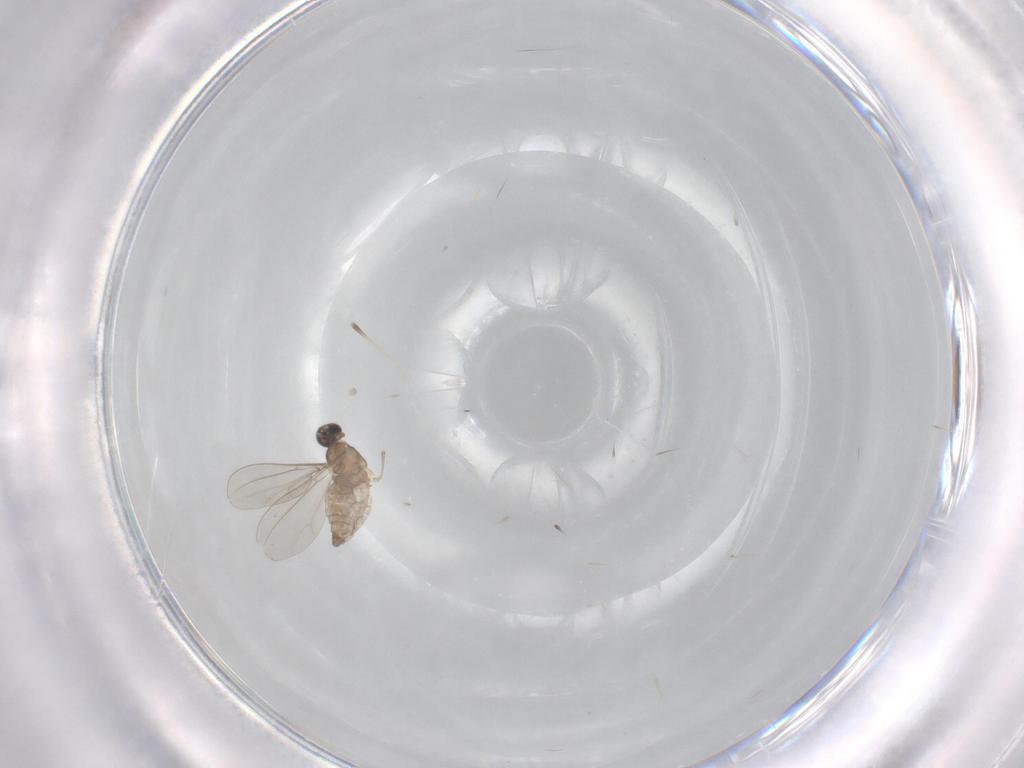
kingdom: Animalia
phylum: Arthropoda
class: Insecta
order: Diptera
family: Cecidomyiidae
